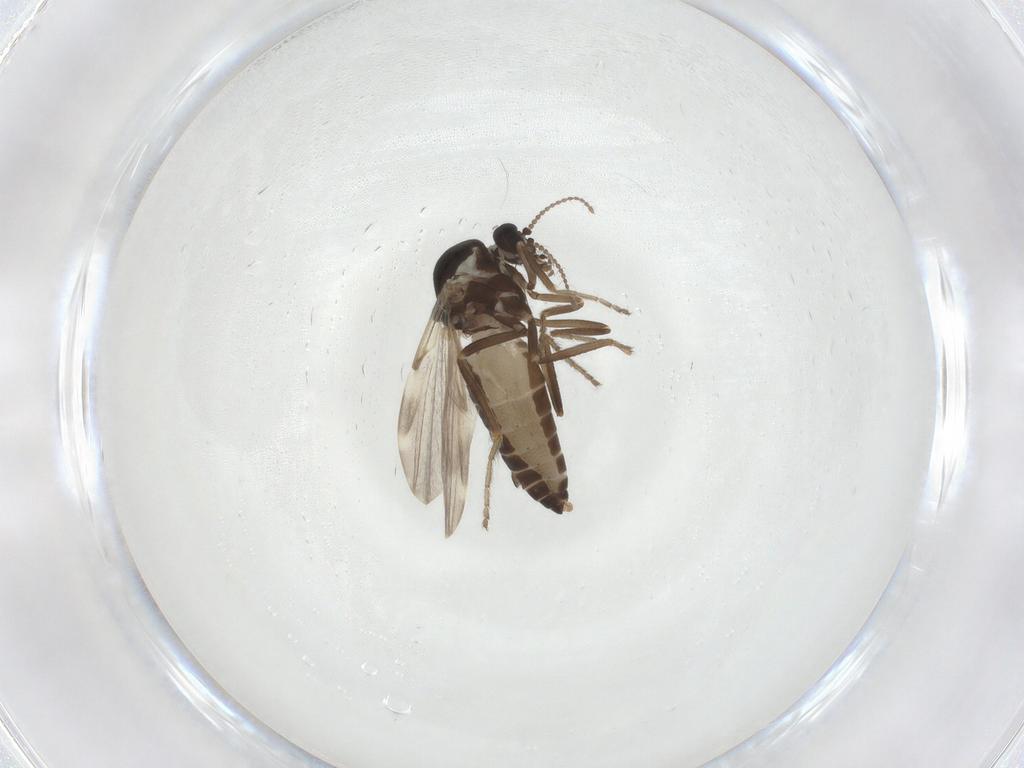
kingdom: Animalia
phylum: Arthropoda
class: Insecta
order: Diptera
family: Ceratopogonidae
